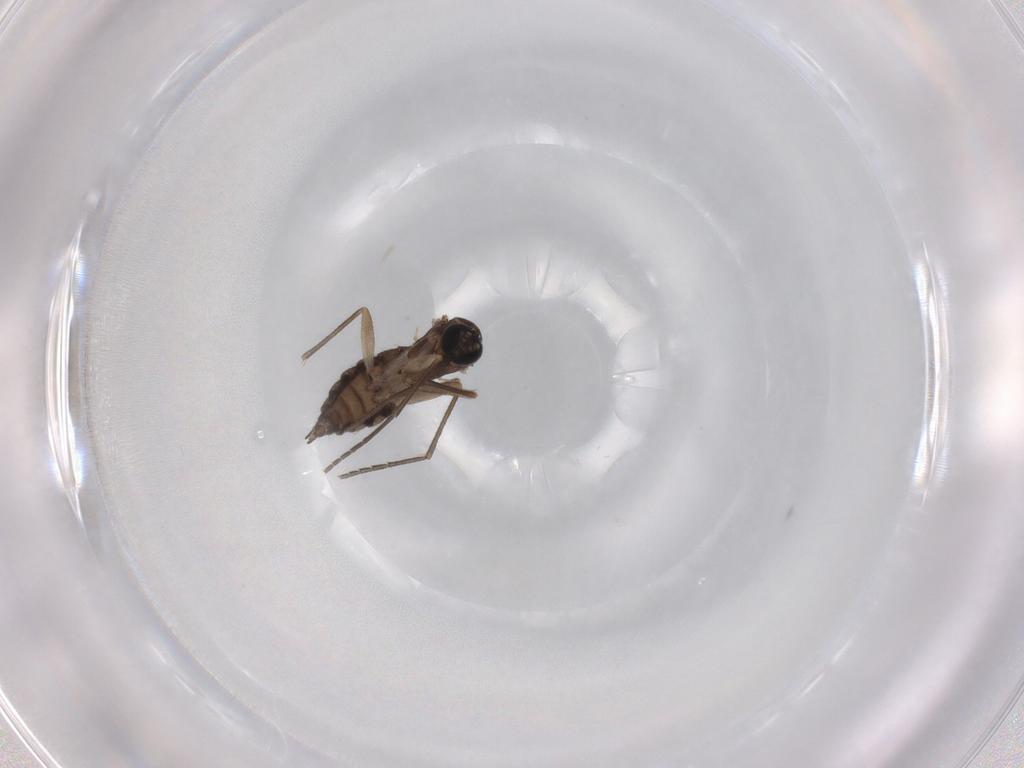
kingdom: Animalia
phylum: Arthropoda
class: Insecta
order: Diptera
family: Sciaridae
